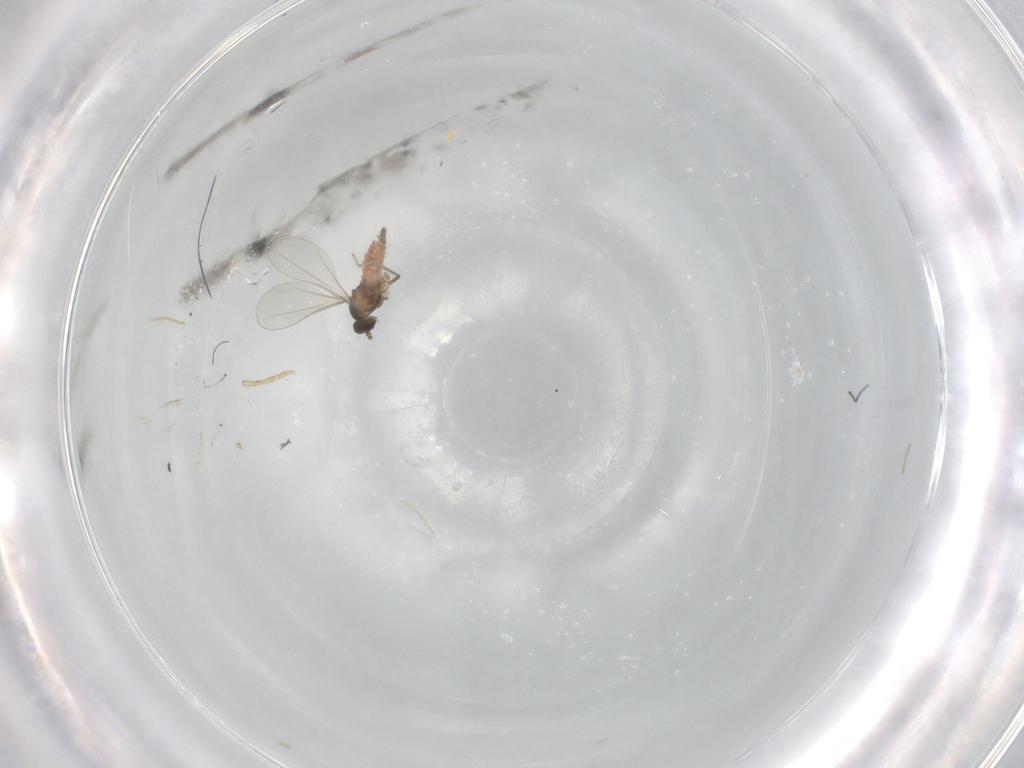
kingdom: Animalia
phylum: Arthropoda
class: Insecta
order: Diptera
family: Cecidomyiidae
